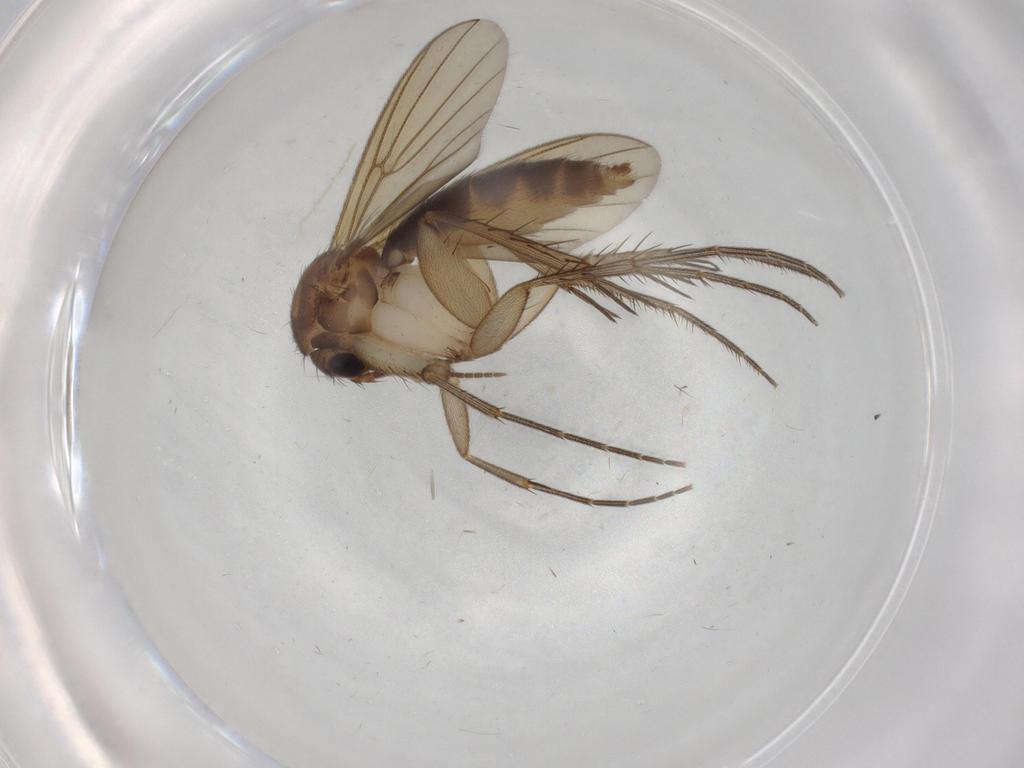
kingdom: Animalia
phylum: Arthropoda
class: Insecta
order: Diptera
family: Mycetophilidae
